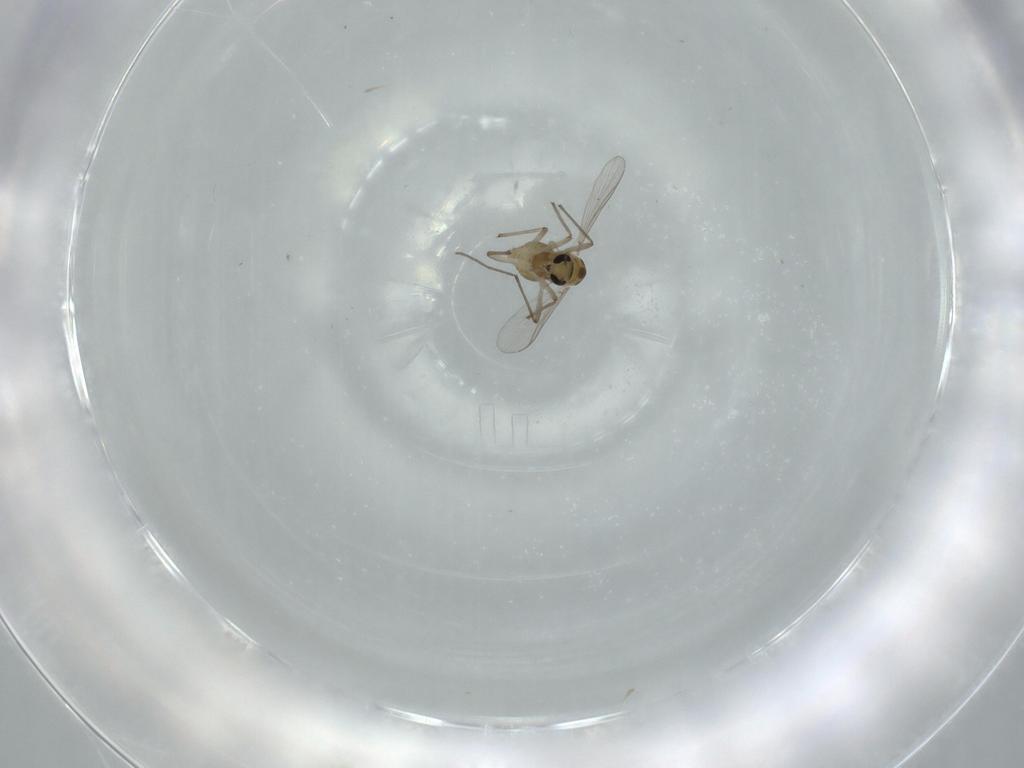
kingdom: Animalia
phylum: Arthropoda
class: Insecta
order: Diptera
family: Chironomidae
